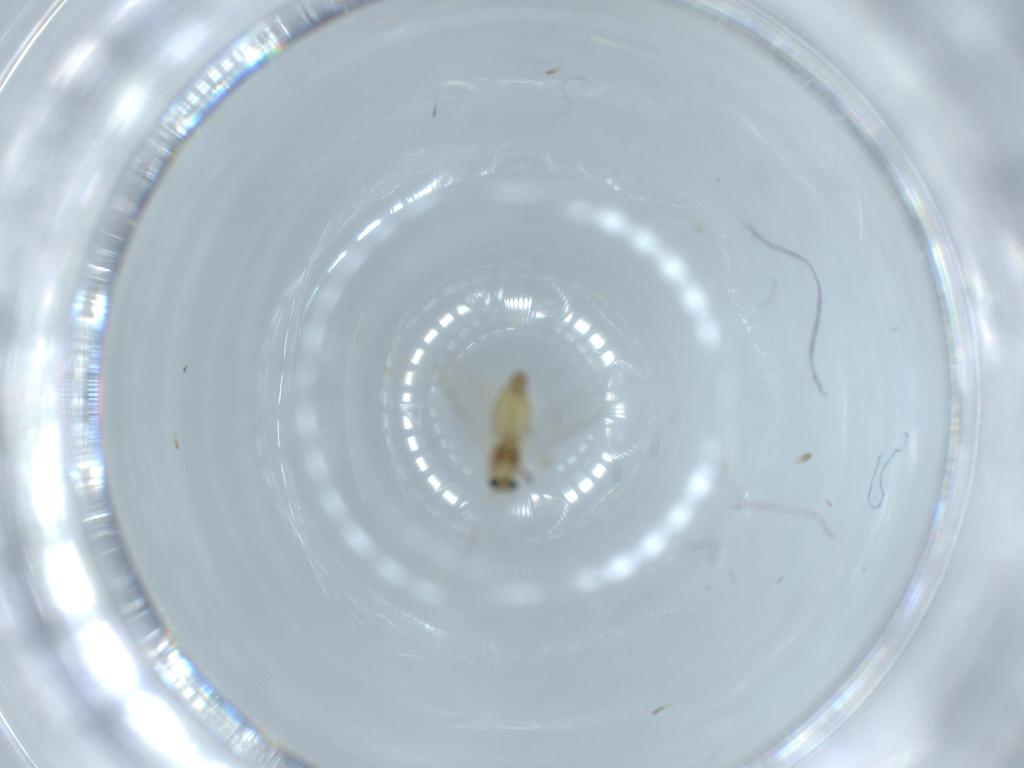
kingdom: Animalia
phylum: Arthropoda
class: Insecta
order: Diptera
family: Chironomidae
